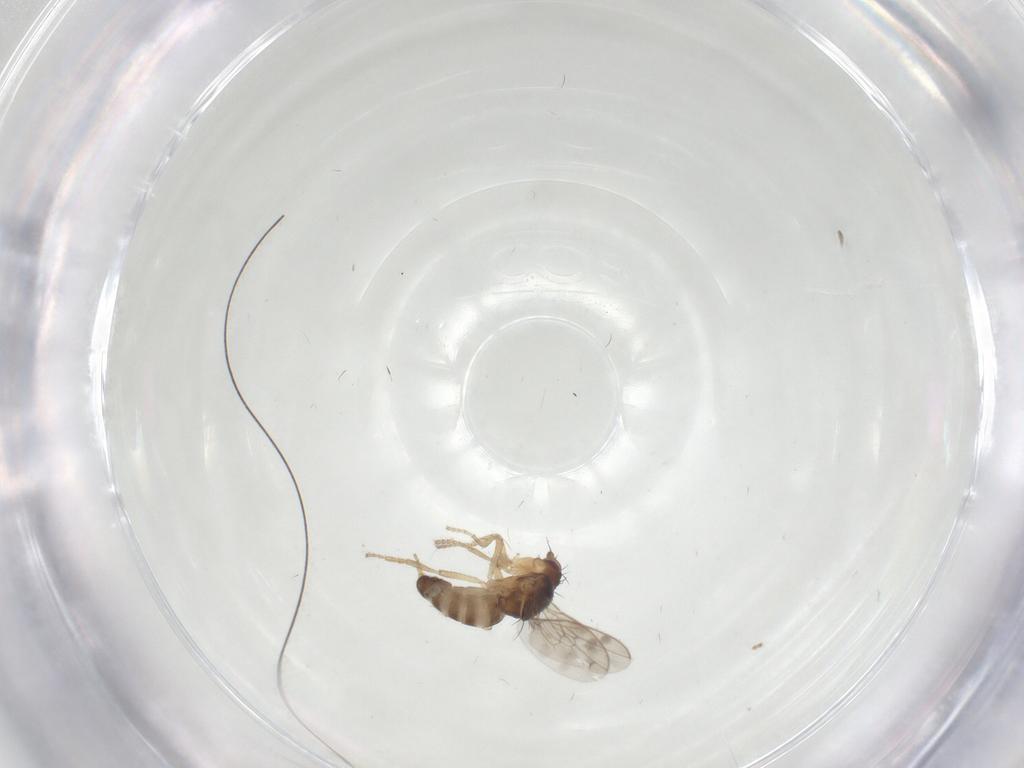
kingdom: Animalia
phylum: Arthropoda
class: Insecta
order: Diptera
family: Sphaeroceridae
